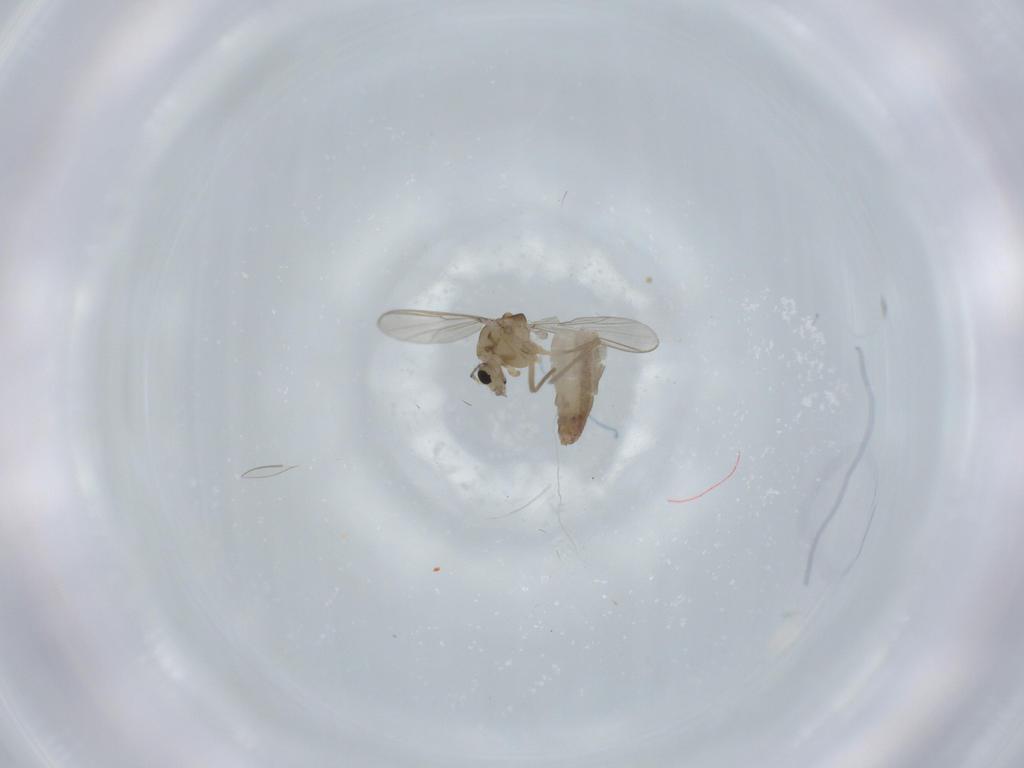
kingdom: Animalia
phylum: Arthropoda
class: Insecta
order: Diptera
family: Chironomidae
